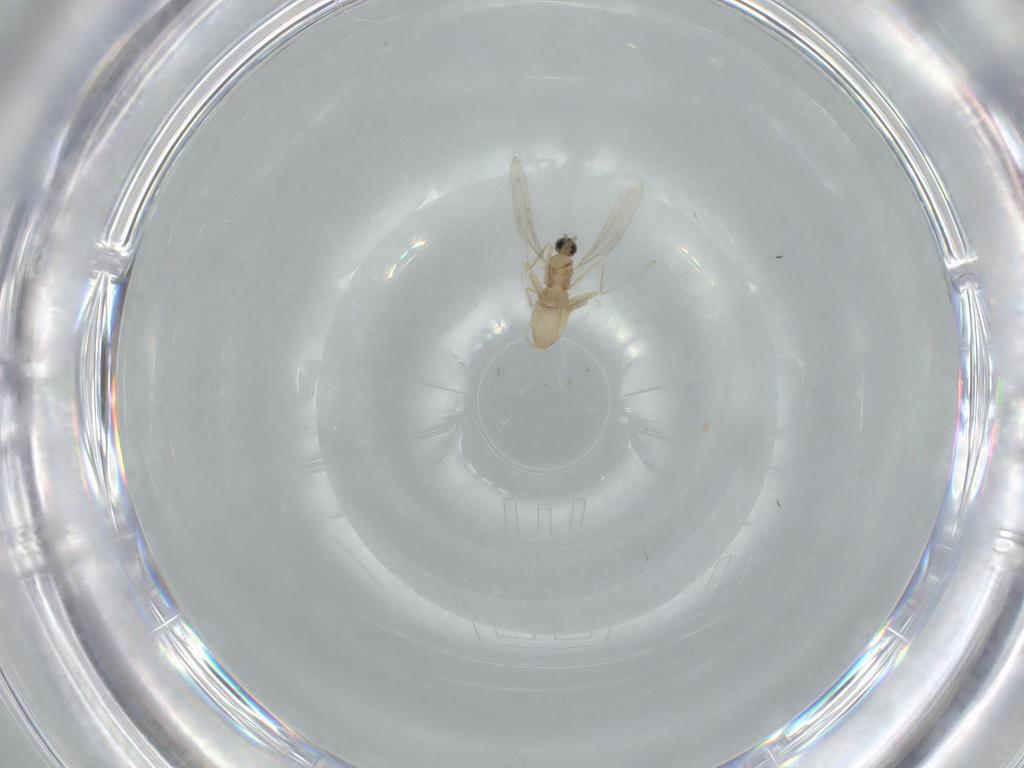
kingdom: Animalia
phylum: Arthropoda
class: Insecta
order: Diptera
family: Cecidomyiidae
